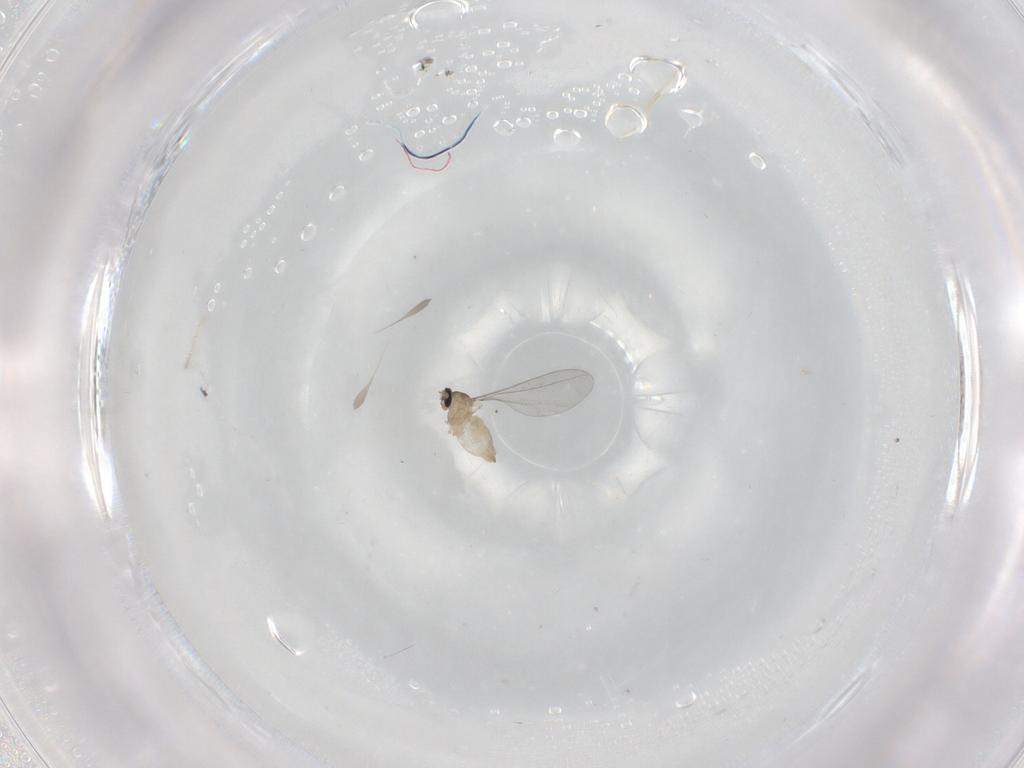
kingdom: Animalia
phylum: Arthropoda
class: Insecta
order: Diptera
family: Cecidomyiidae
